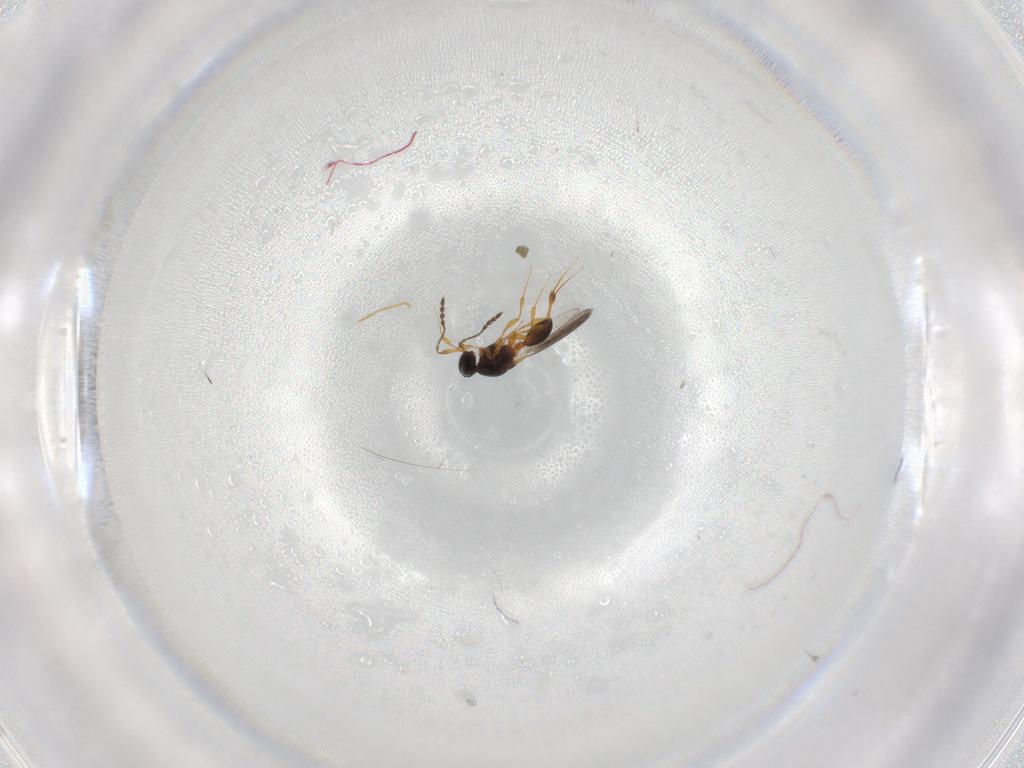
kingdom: Animalia
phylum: Arthropoda
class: Insecta
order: Hymenoptera
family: Platygastridae
